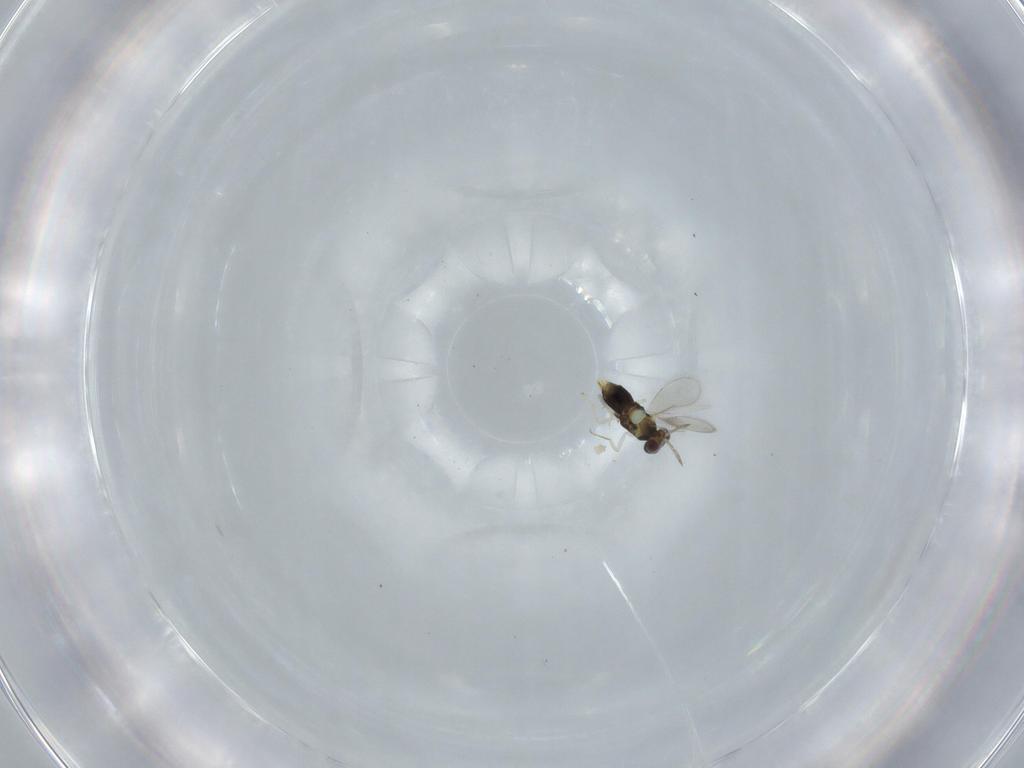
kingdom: Animalia
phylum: Arthropoda
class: Insecta
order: Hymenoptera
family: Aphelinidae
